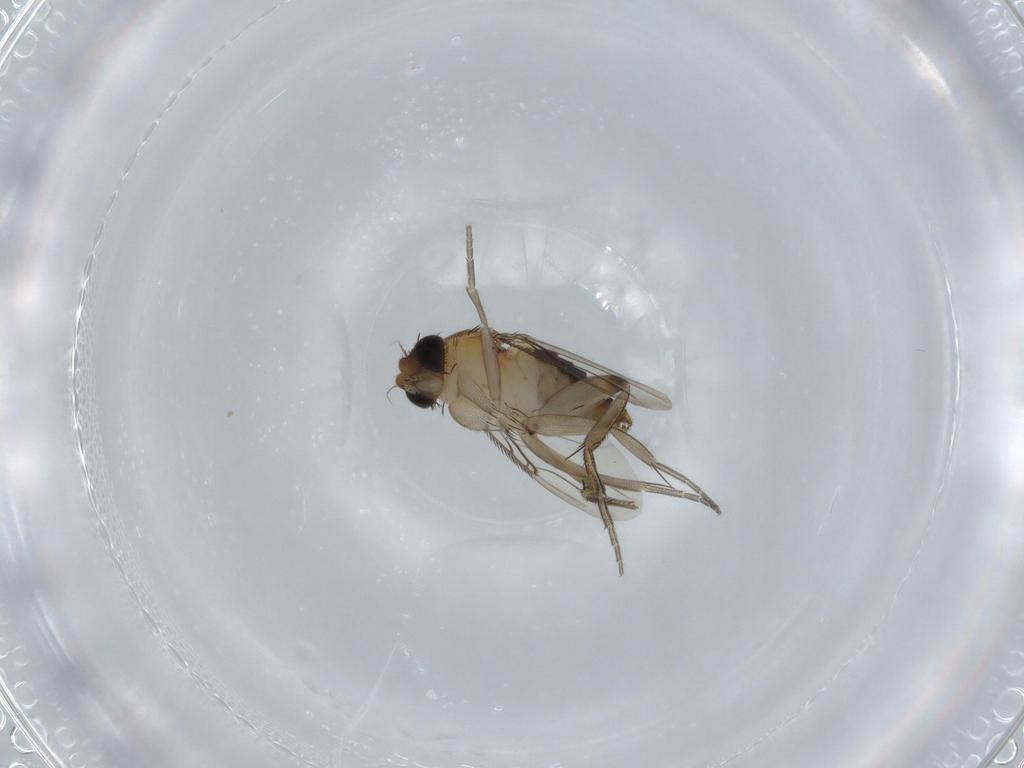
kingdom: Animalia
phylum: Arthropoda
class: Insecta
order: Diptera
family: Phoridae
